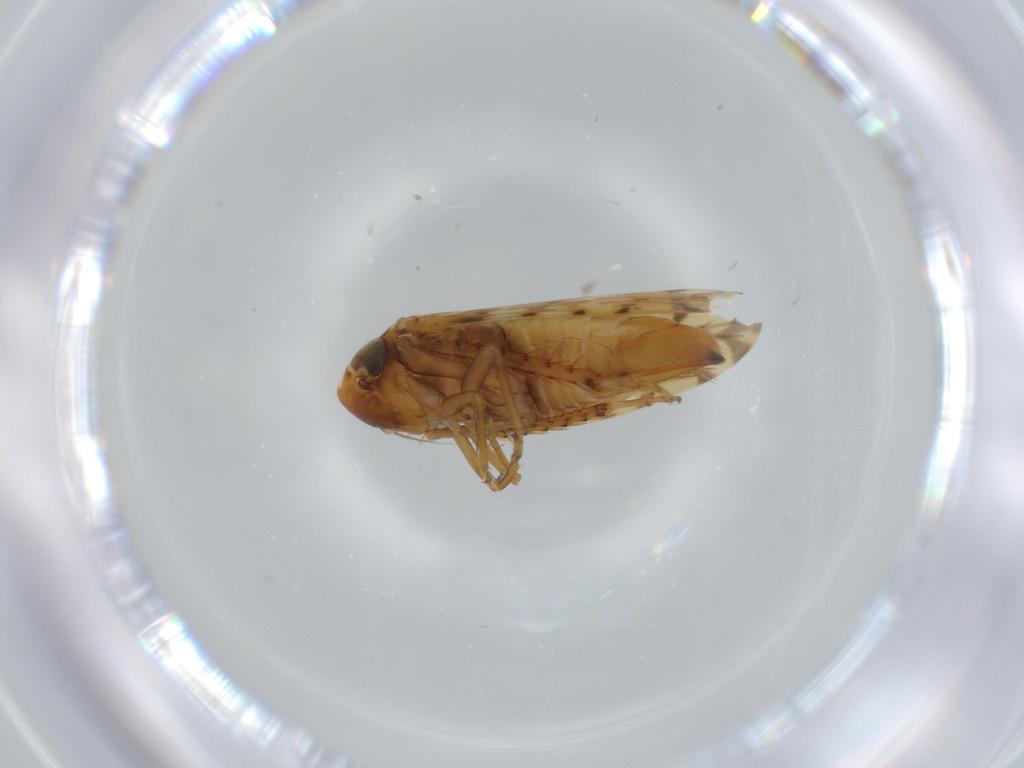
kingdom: Animalia
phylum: Arthropoda
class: Insecta
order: Hemiptera
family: Cicadellidae
